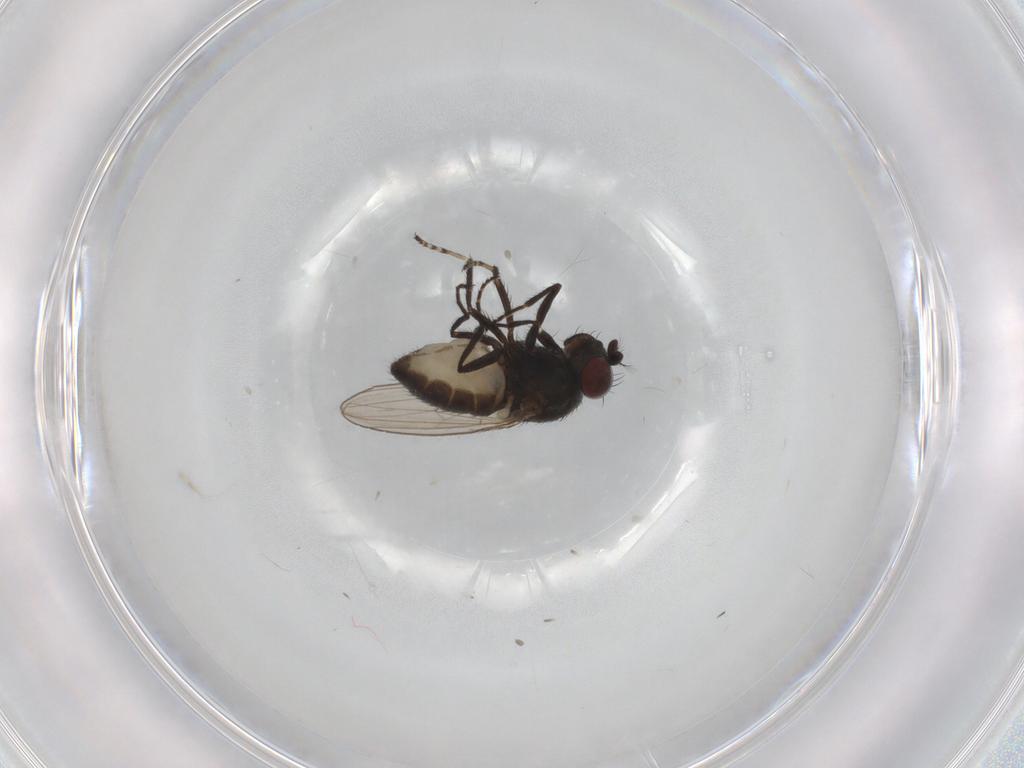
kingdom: Animalia
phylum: Arthropoda
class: Insecta
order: Diptera
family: Ephydridae
